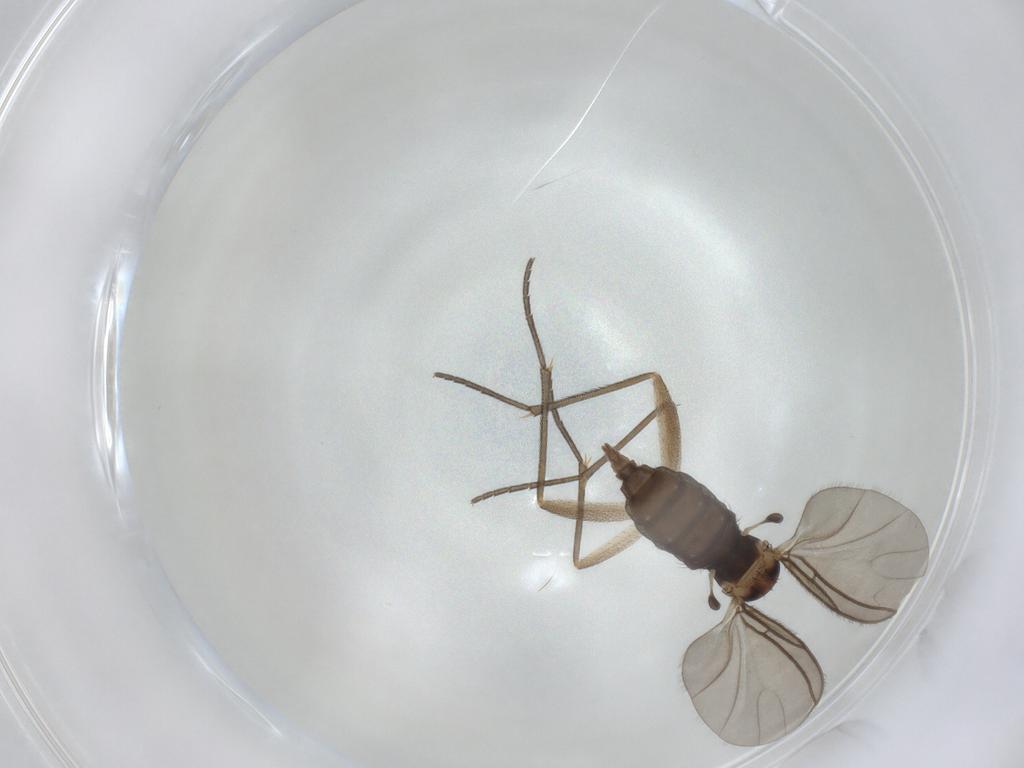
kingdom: Animalia
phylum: Arthropoda
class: Insecta
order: Diptera
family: Sciaridae
